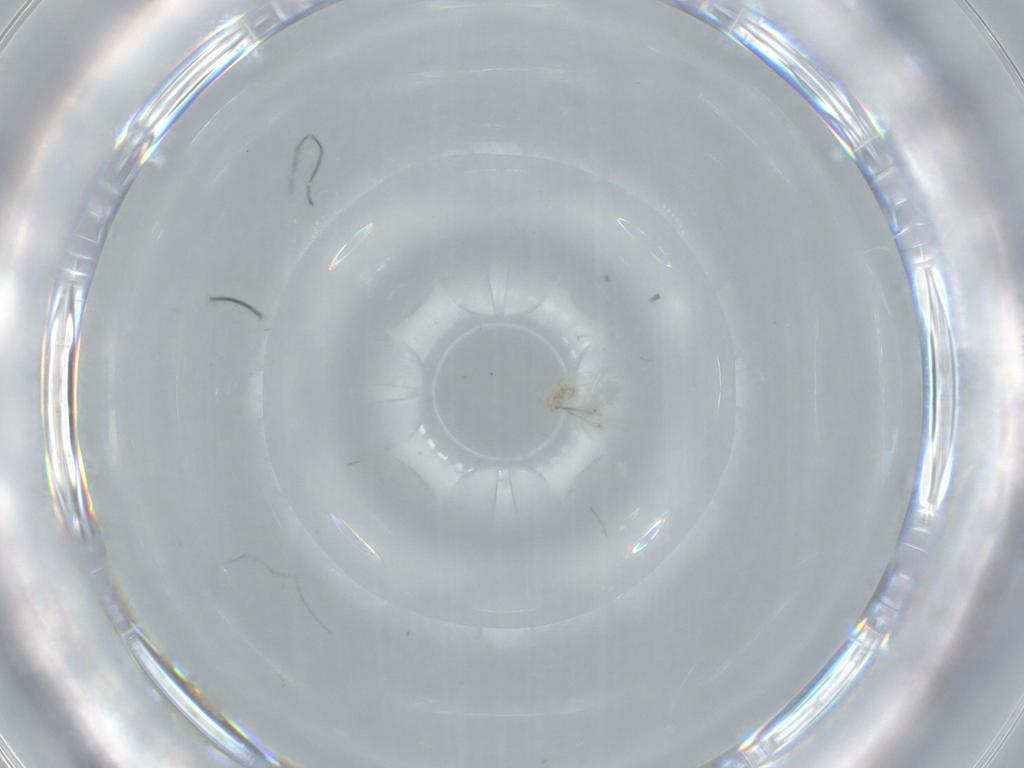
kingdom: Animalia
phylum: Arthropoda
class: Insecta
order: Hymenoptera
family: Mymaridae
